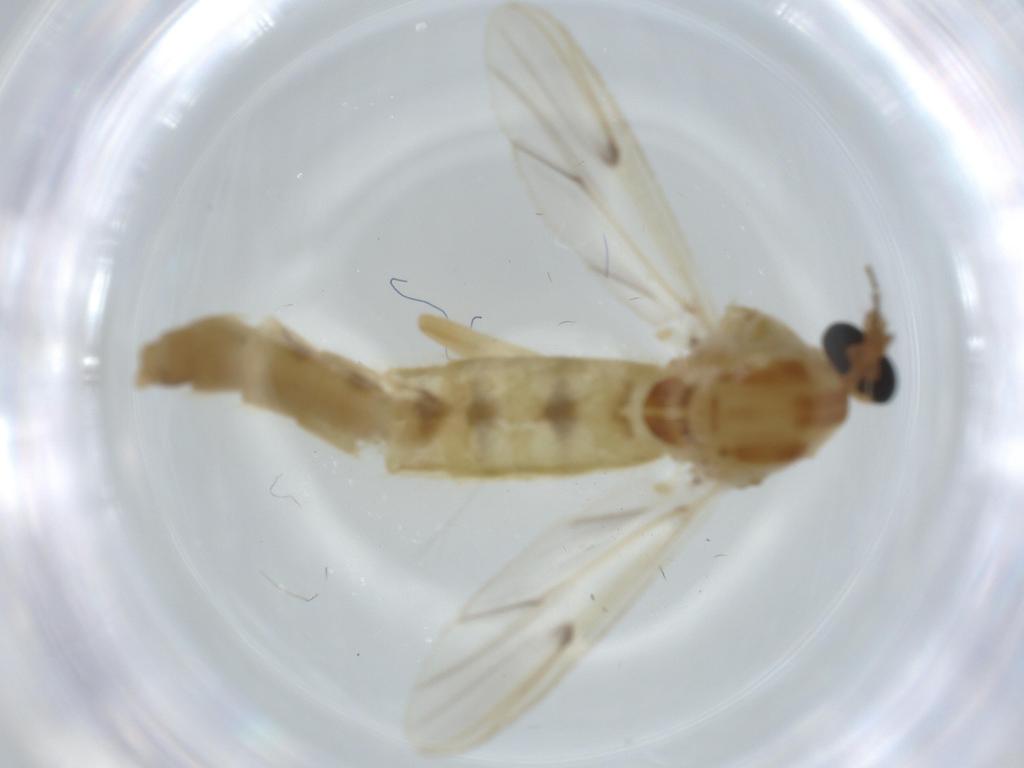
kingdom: Animalia
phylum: Arthropoda
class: Insecta
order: Diptera
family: Chironomidae
